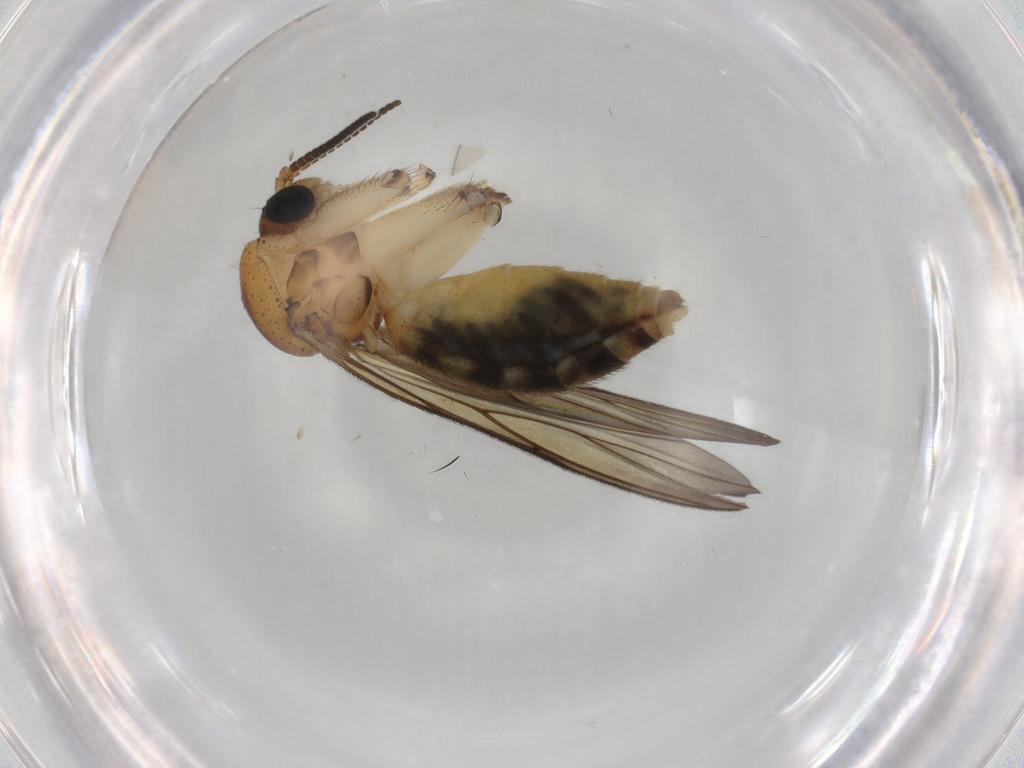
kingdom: Animalia
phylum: Arthropoda
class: Insecta
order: Diptera
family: Mycetophilidae
